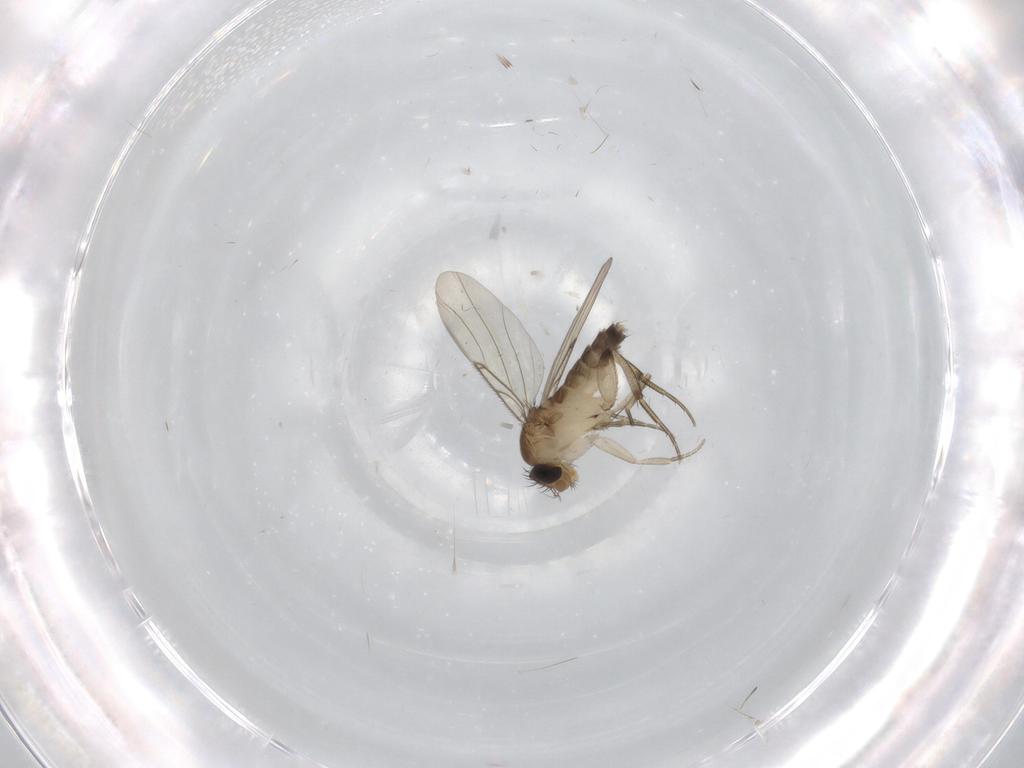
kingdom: Animalia
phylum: Arthropoda
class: Insecta
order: Diptera
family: Phoridae
